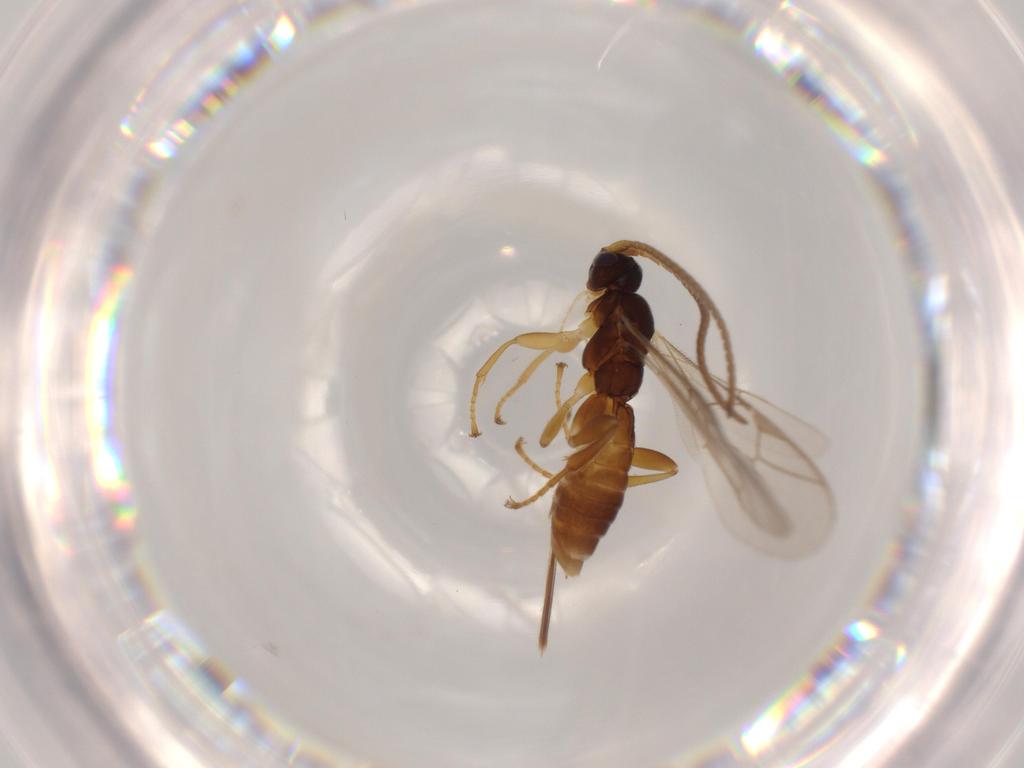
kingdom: Animalia
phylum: Arthropoda
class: Insecta
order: Hymenoptera
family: Ichneumonidae
